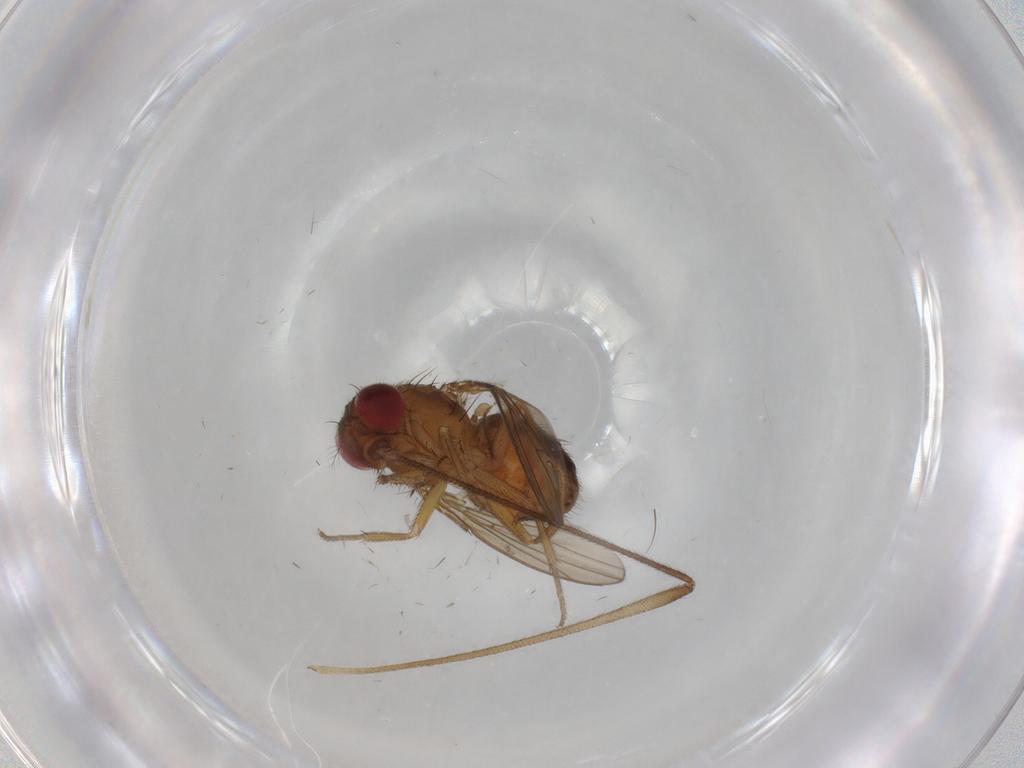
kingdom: Animalia
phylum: Arthropoda
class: Insecta
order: Diptera
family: Drosophilidae
